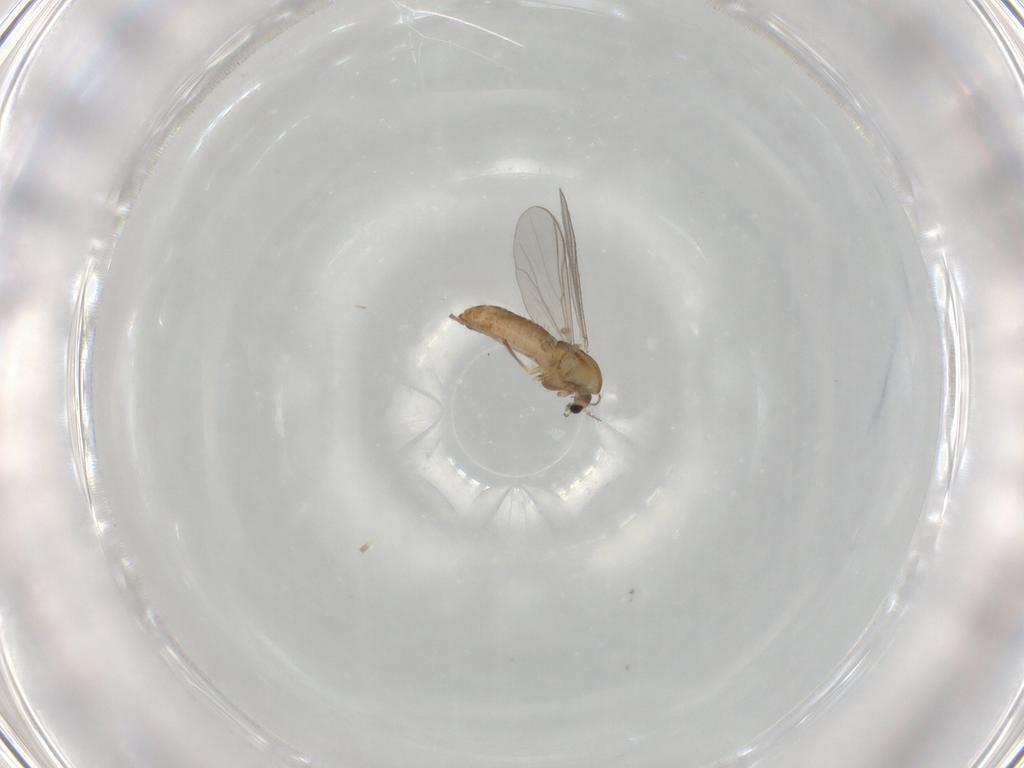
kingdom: Animalia
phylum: Arthropoda
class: Insecta
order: Diptera
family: Chironomidae
